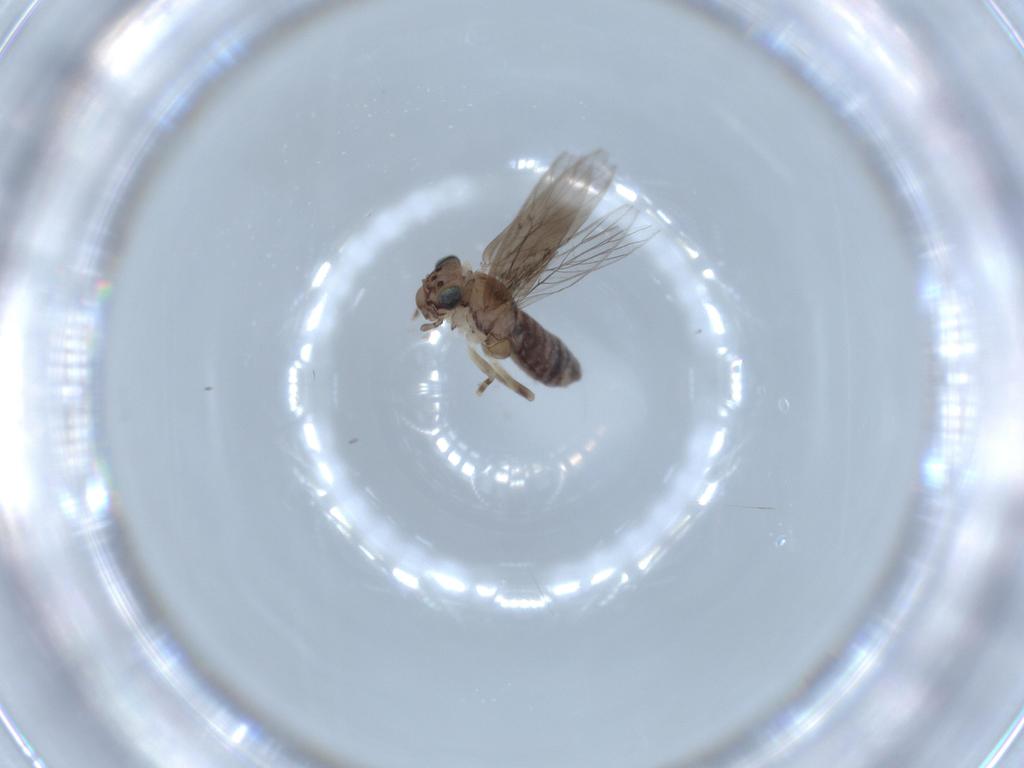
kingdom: Animalia
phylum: Arthropoda
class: Insecta
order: Psocodea
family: Lepidopsocidae
